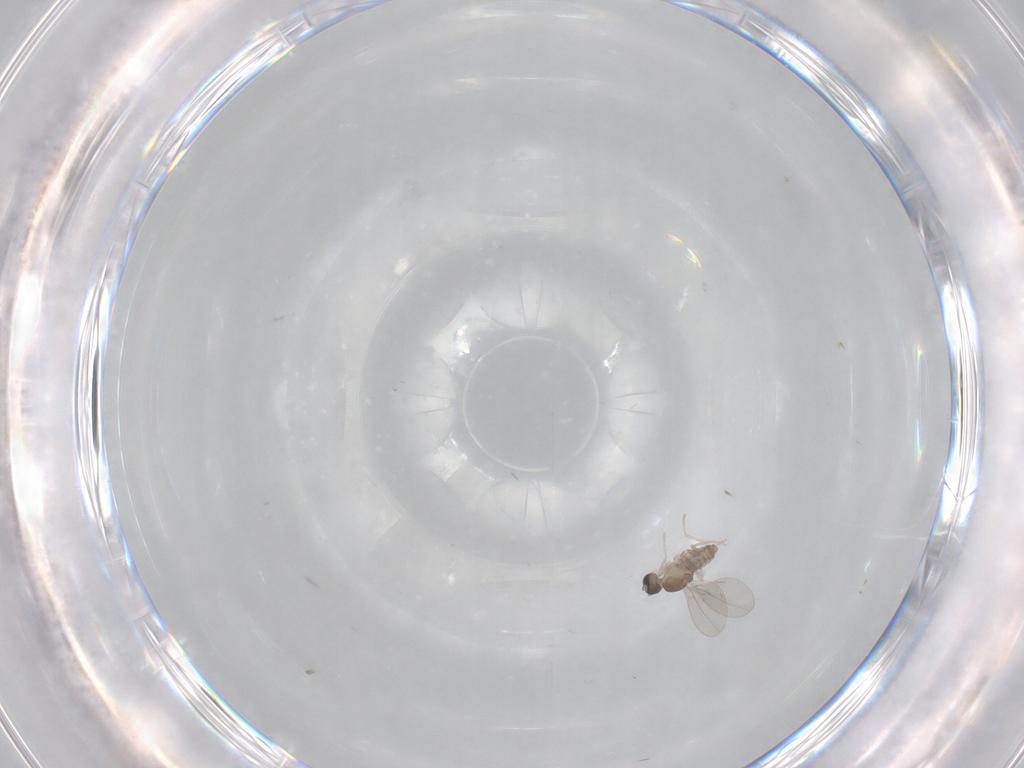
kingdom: Animalia
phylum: Arthropoda
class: Insecta
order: Diptera
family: Cecidomyiidae
